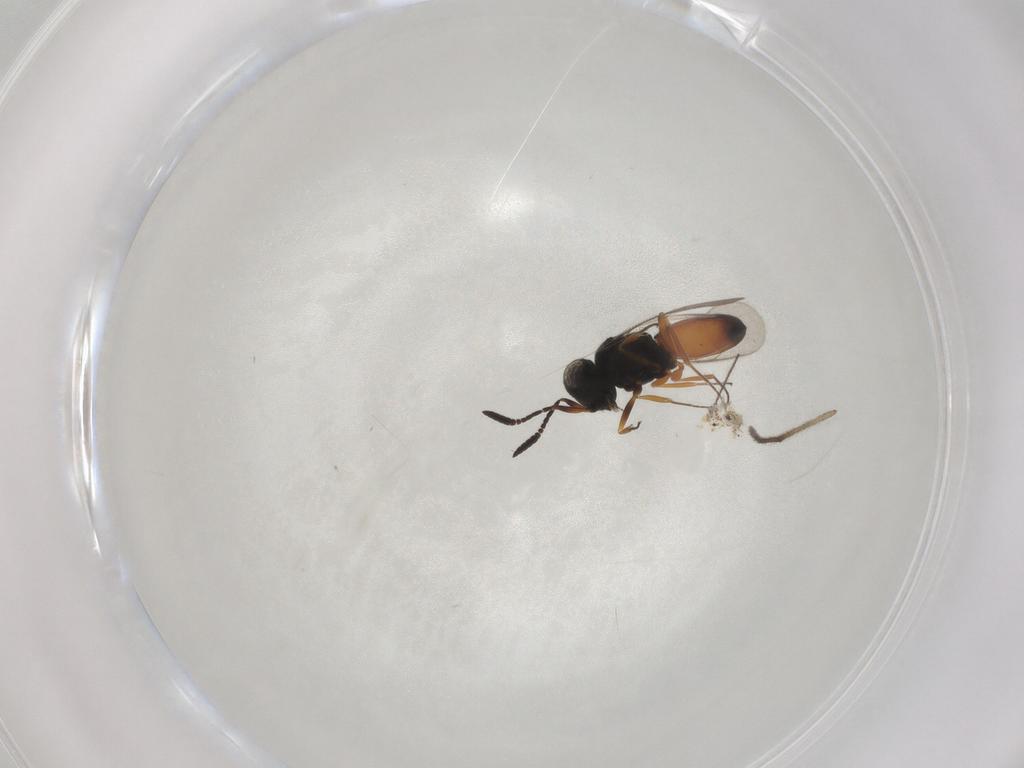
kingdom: Animalia
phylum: Arthropoda
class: Insecta
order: Hymenoptera
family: Scelionidae
